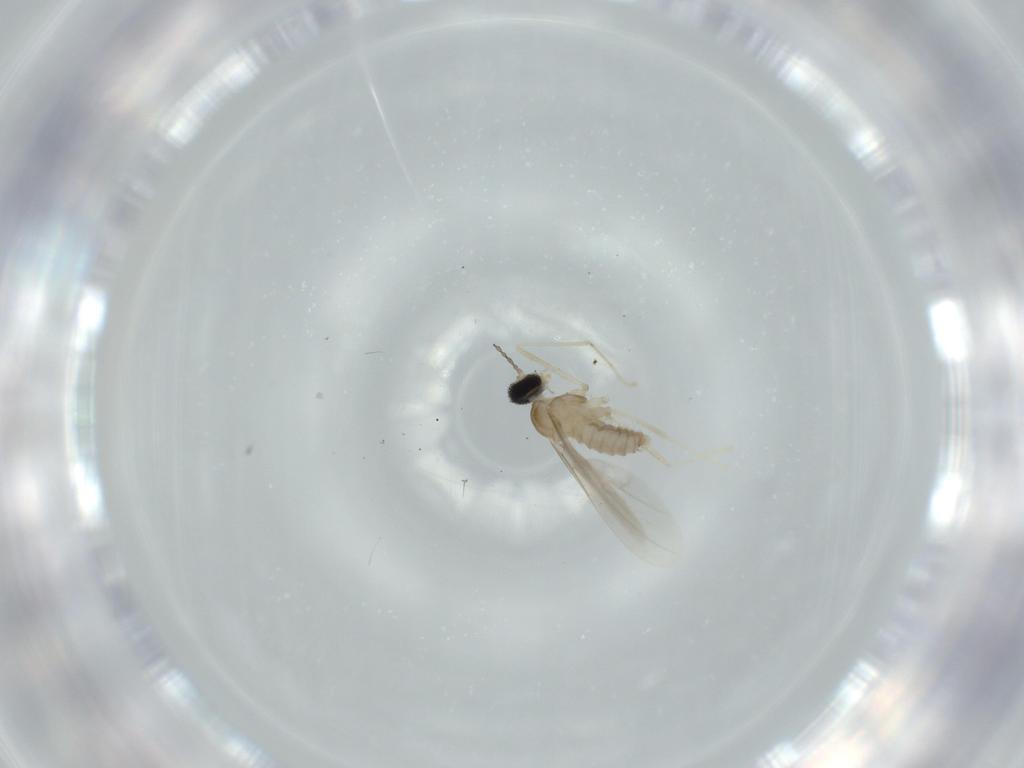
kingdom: Animalia
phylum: Arthropoda
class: Insecta
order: Diptera
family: Cecidomyiidae
